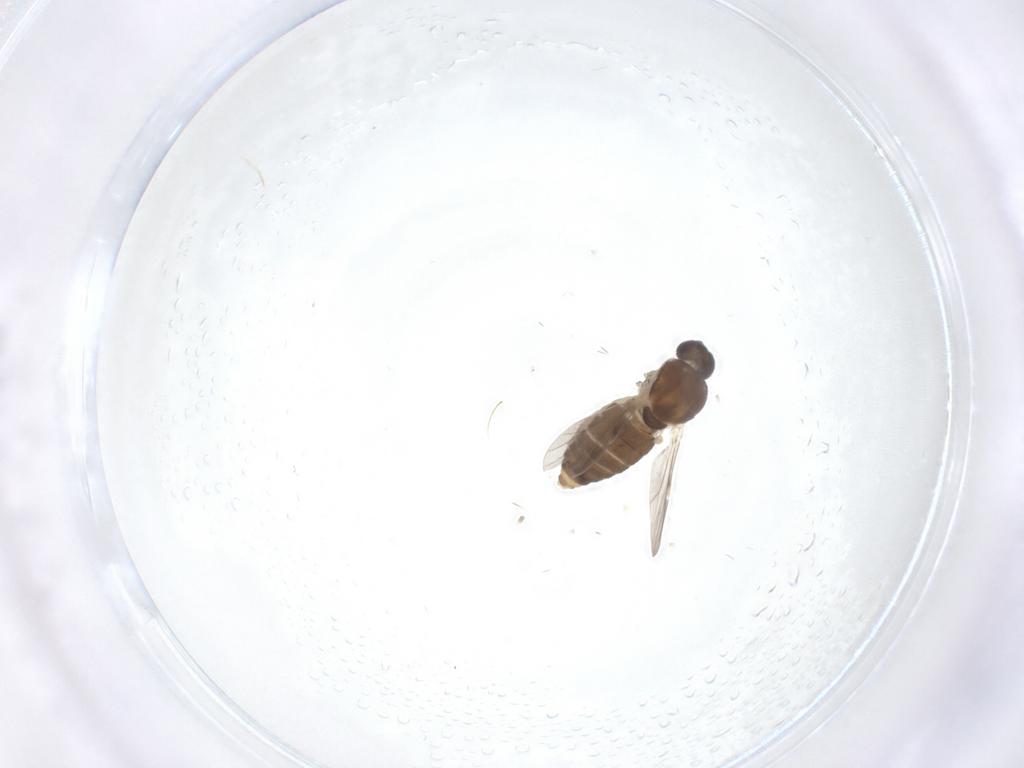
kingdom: Animalia
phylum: Arthropoda
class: Insecta
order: Diptera
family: Ceratopogonidae
